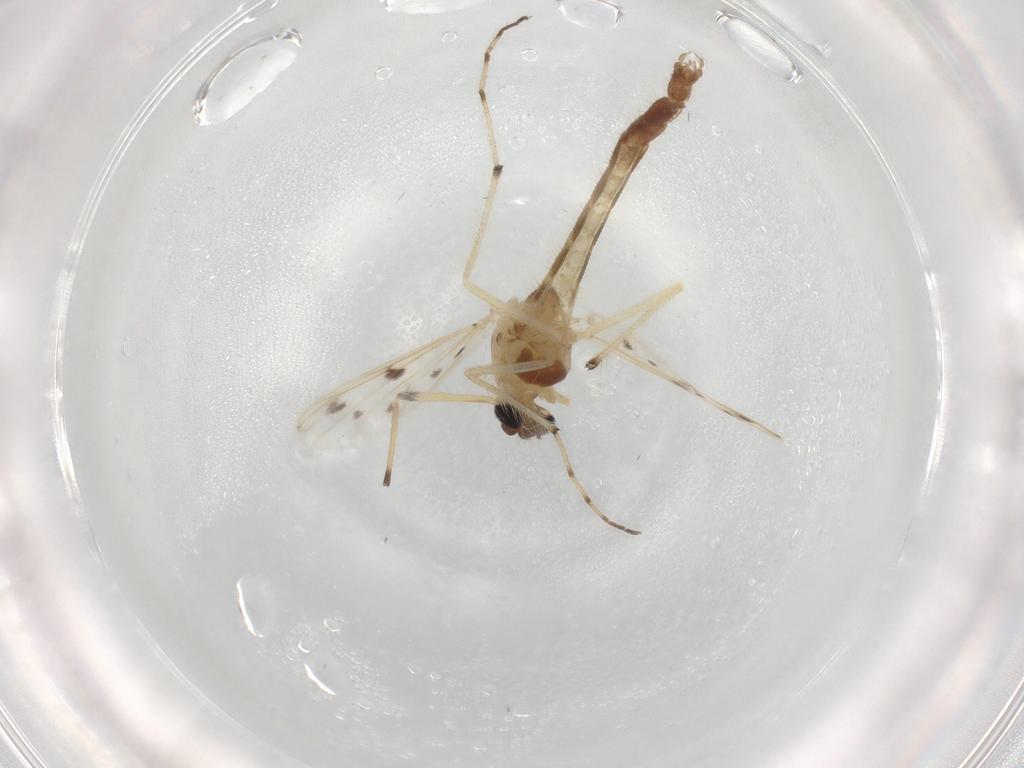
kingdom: Animalia
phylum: Arthropoda
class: Insecta
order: Diptera
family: Chironomidae
